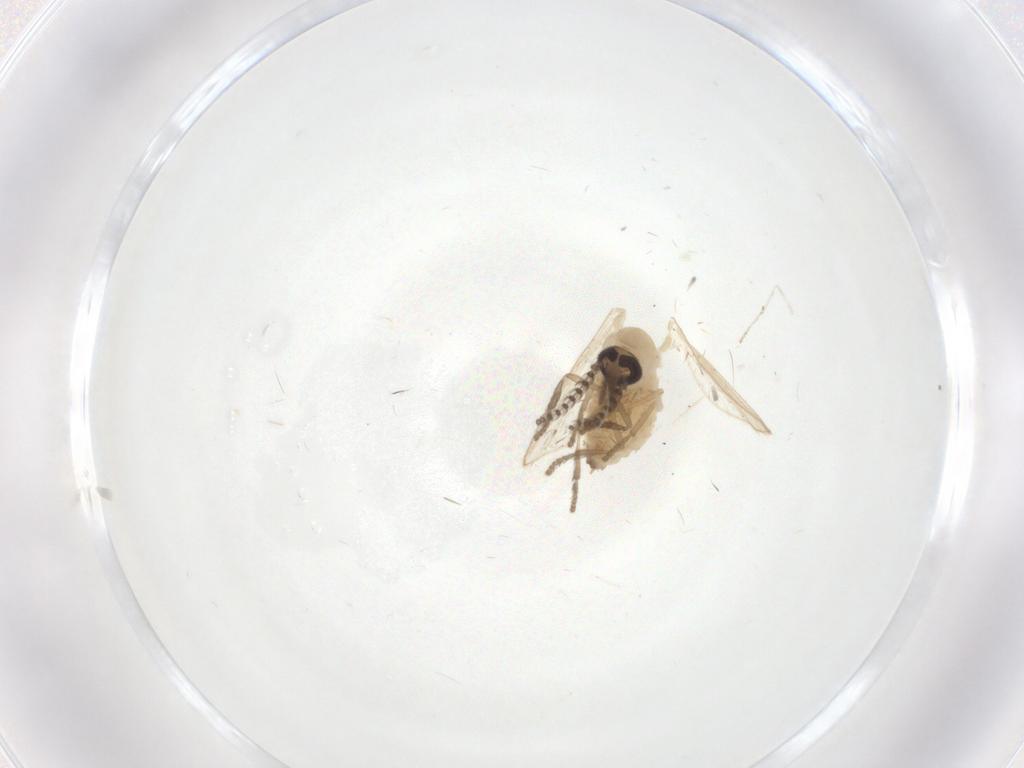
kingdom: Animalia
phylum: Arthropoda
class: Insecta
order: Diptera
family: Psychodidae
